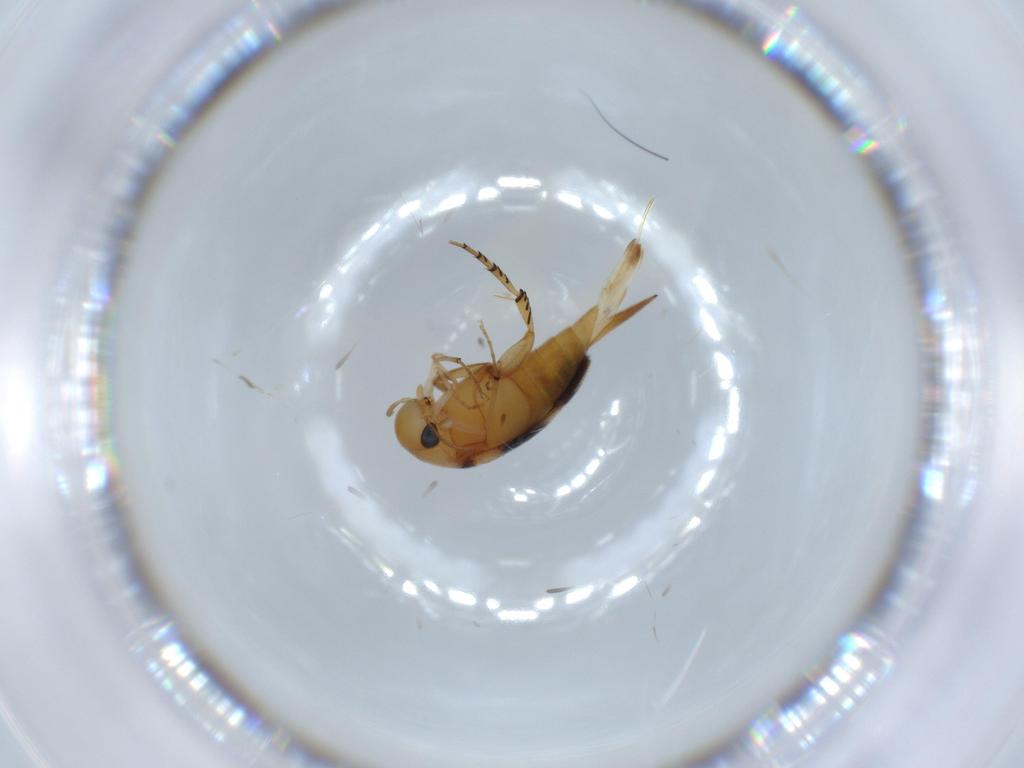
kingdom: Animalia
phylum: Arthropoda
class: Insecta
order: Coleoptera
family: Mordellidae
